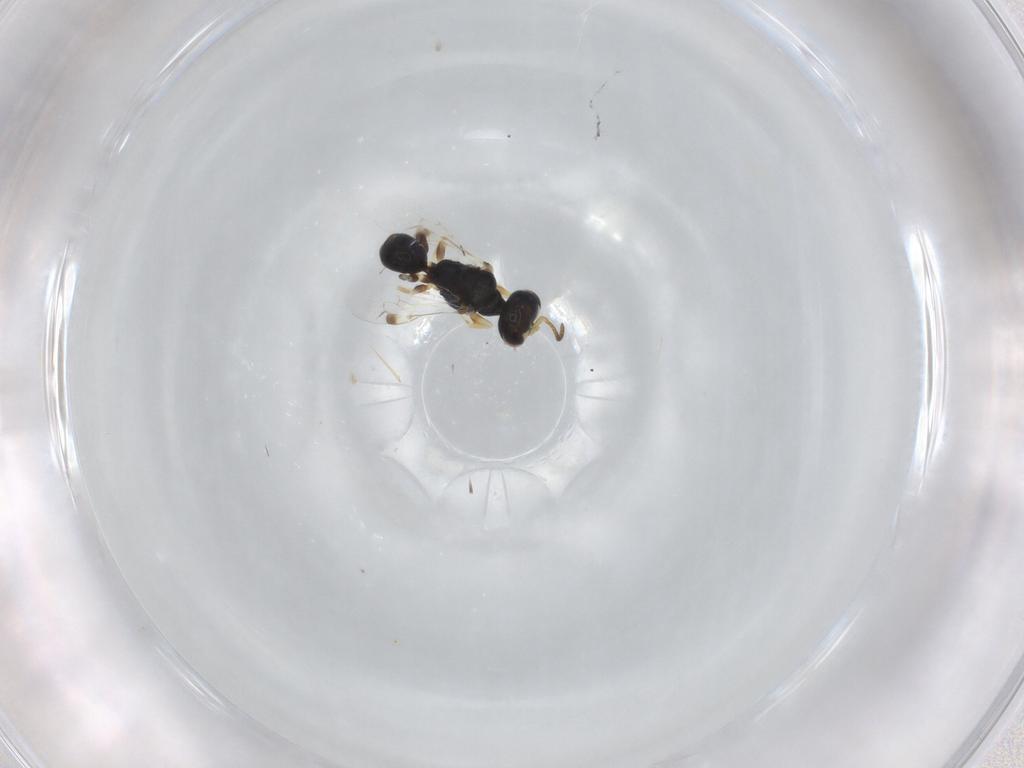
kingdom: Animalia
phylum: Arthropoda
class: Insecta
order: Hymenoptera
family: Pemphredonidae
